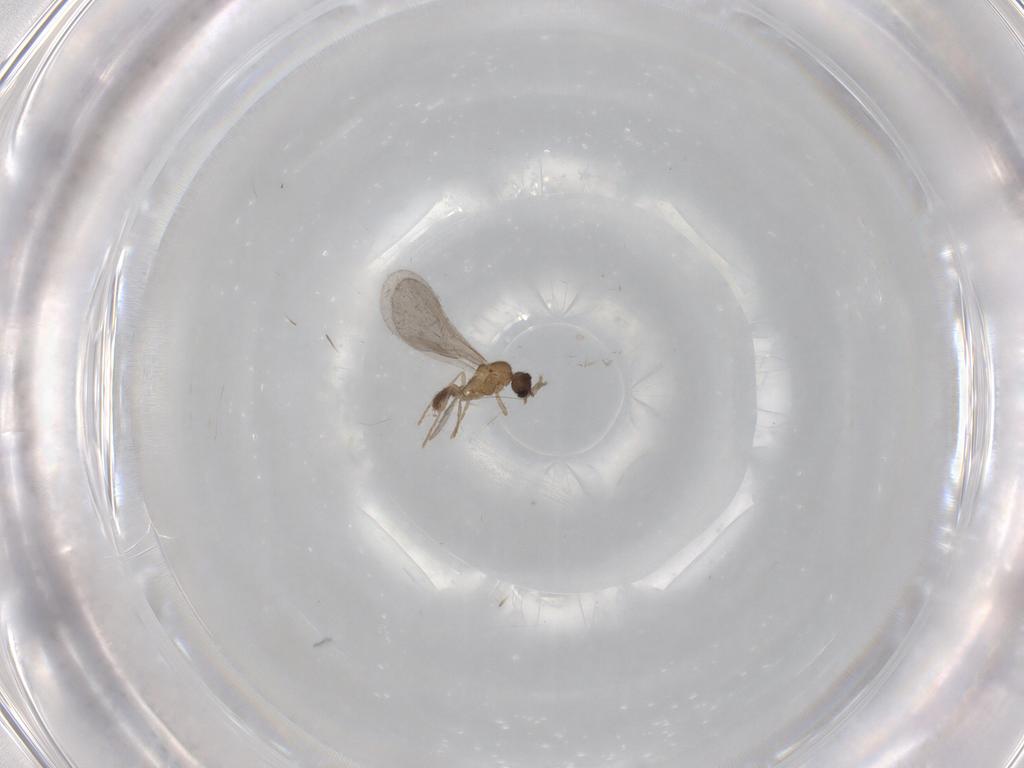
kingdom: Animalia
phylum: Arthropoda
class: Insecta
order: Hymenoptera
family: Formicidae
